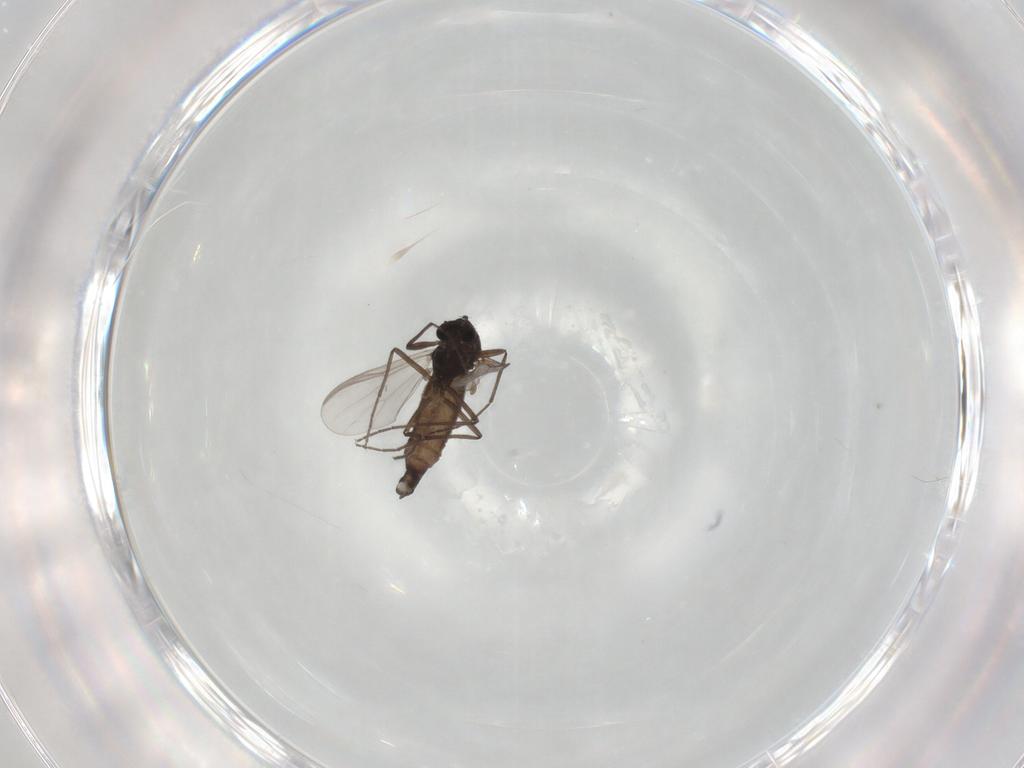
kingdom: Animalia
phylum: Arthropoda
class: Insecta
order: Diptera
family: Chironomidae
